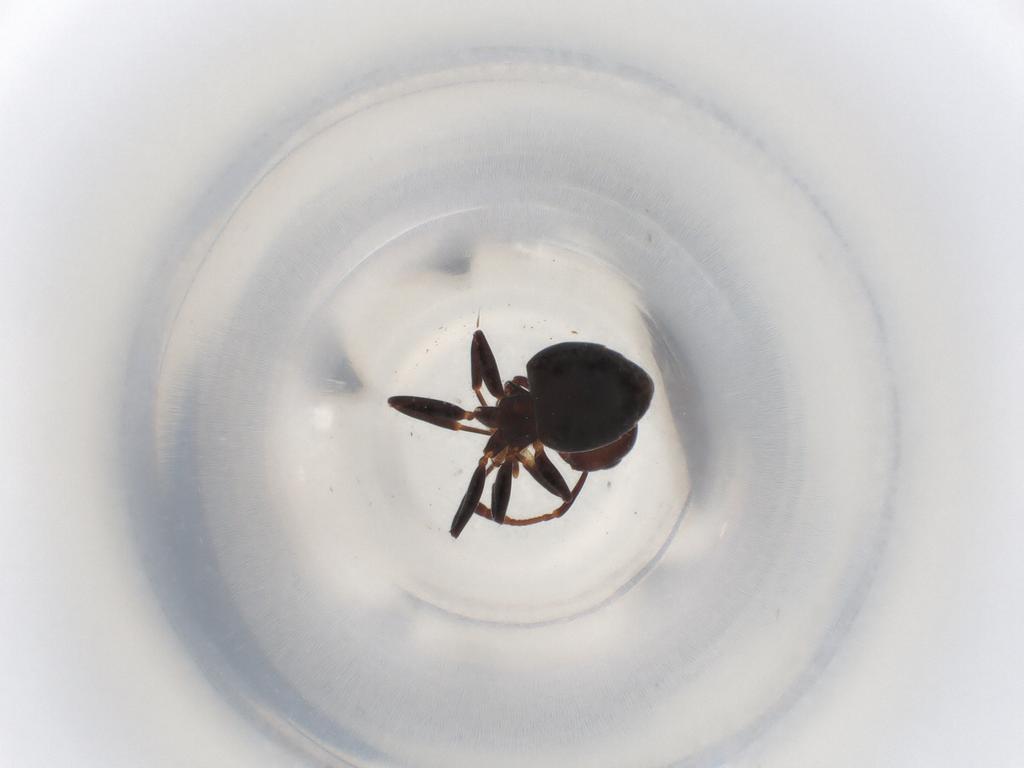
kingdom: Animalia
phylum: Arthropoda
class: Insecta
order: Hymenoptera
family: Formicidae
